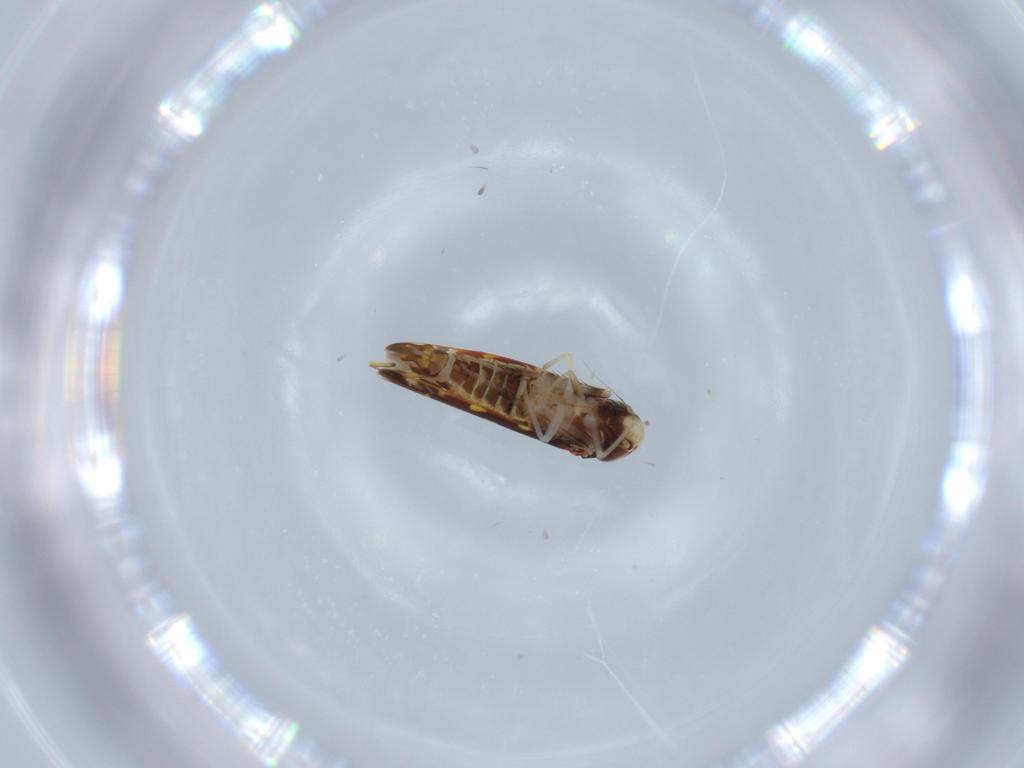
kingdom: Animalia
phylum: Arthropoda
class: Insecta
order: Hemiptera
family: Cicadellidae
